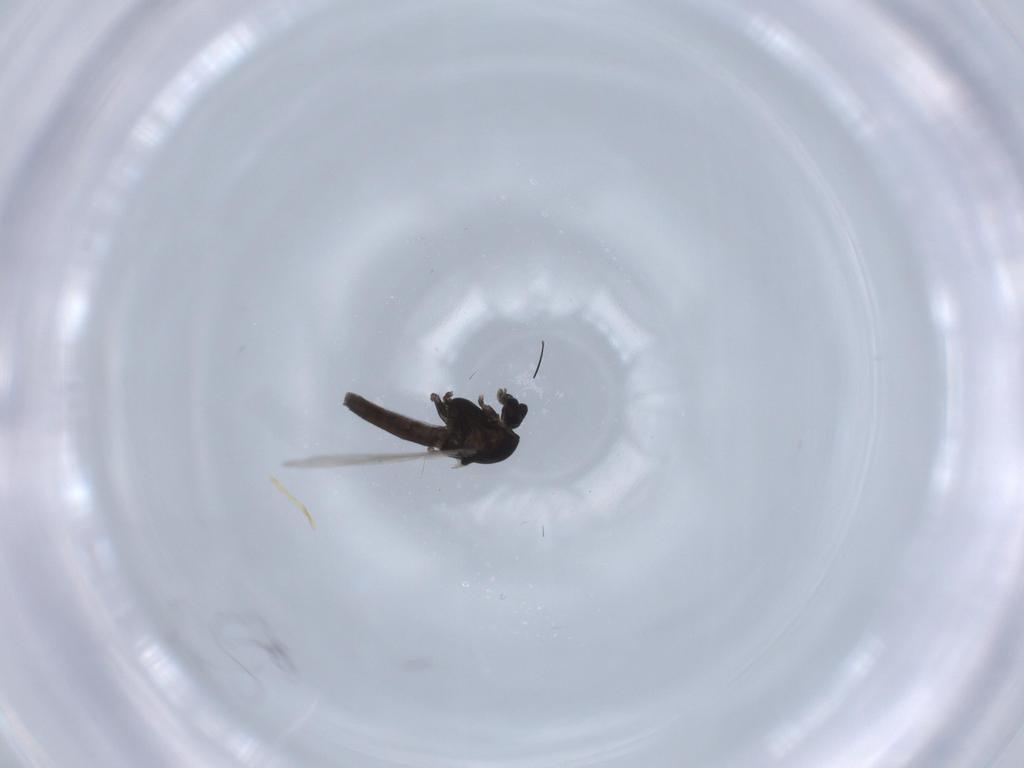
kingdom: Animalia
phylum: Arthropoda
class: Insecta
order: Diptera
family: Chironomidae
